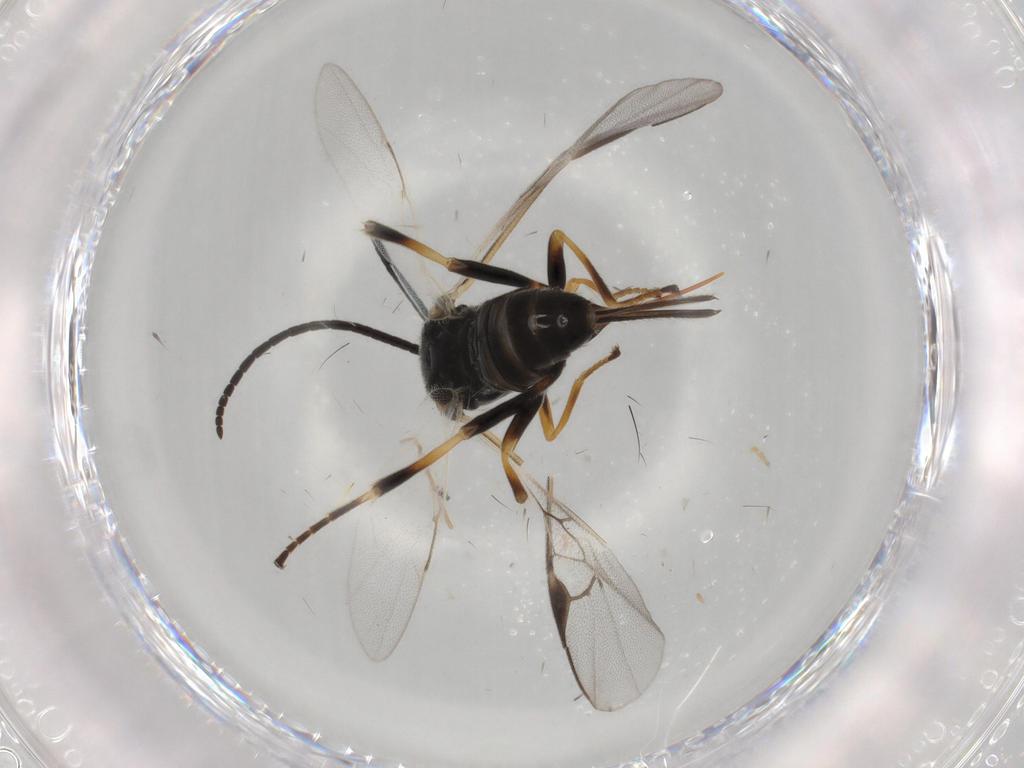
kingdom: Animalia
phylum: Arthropoda
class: Insecta
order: Hymenoptera
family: Braconidae
